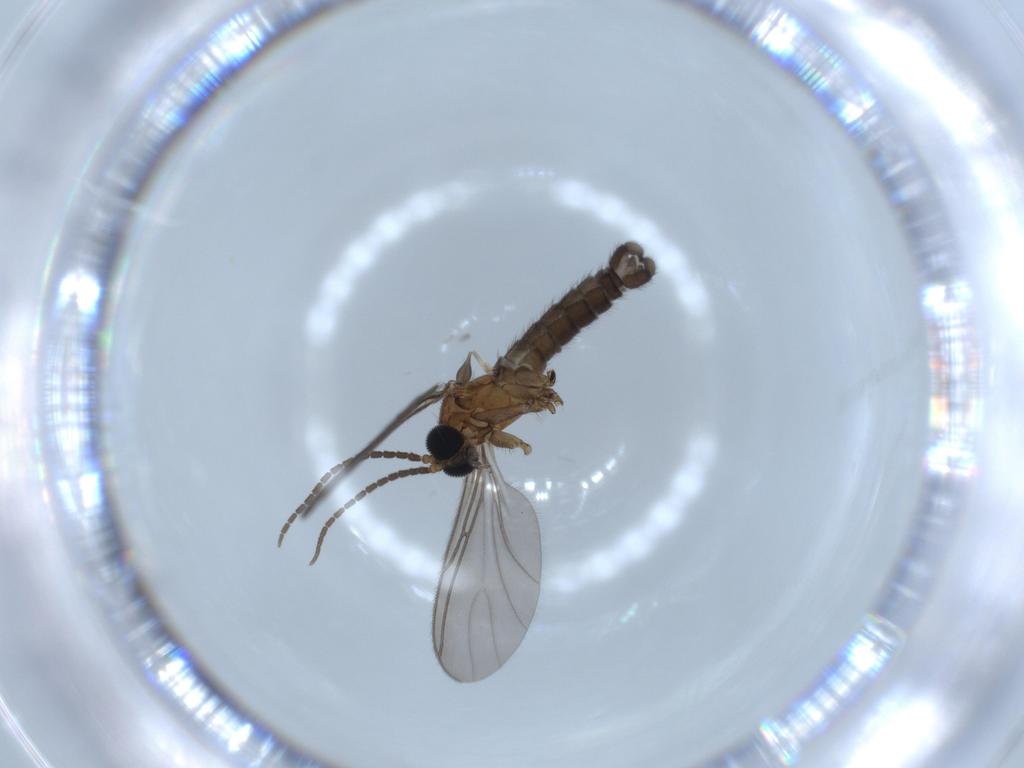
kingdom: Animalia
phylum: Arthropoda
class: Insecta
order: Diptera
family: Sciaridae
